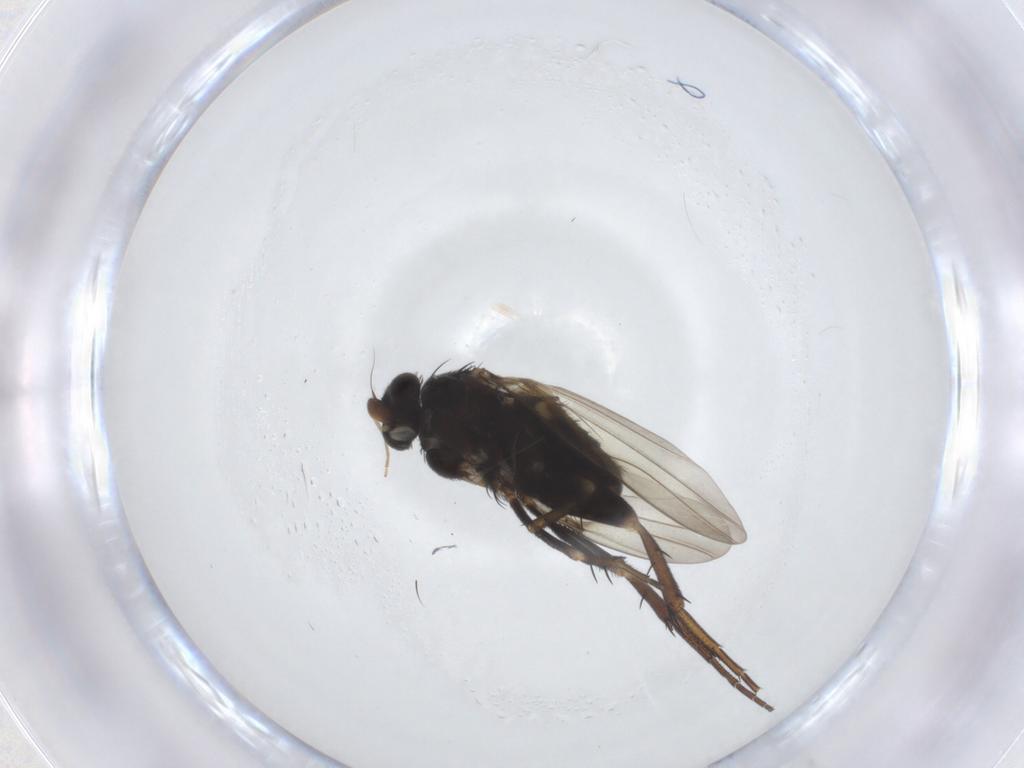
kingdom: Animalia
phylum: Arthropoda
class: Insecta
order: Diptera
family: Phoridae
